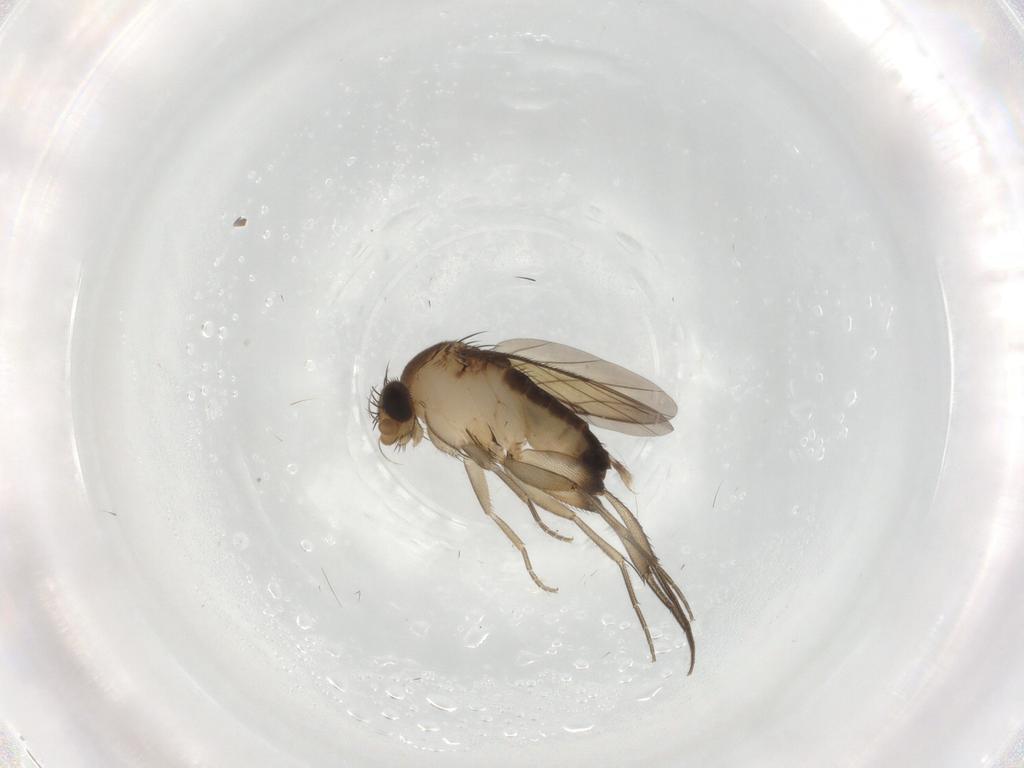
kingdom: Animalia
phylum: Arthropoda
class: Insecta
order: Diptera
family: Phoridae
